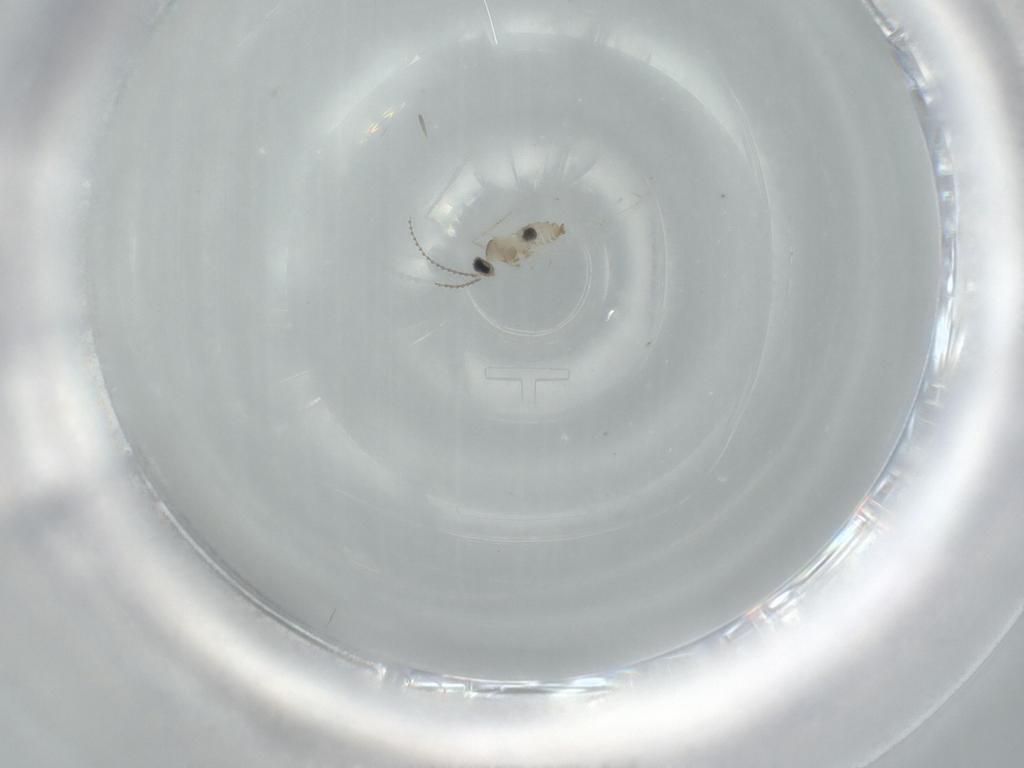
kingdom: Animalia
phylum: Arthropoda
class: Insecta
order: Diptera
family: Cecidomyiidae
